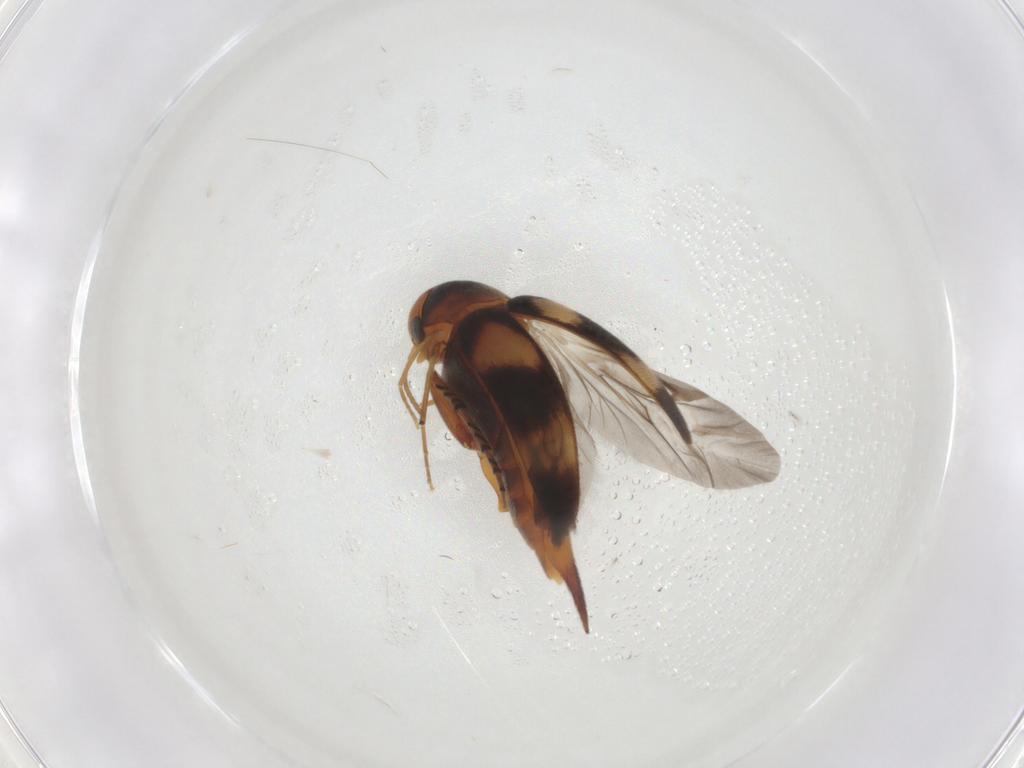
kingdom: Animalia
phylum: Arthropoda
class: Insecta
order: Coleoptera
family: Mordellidae
